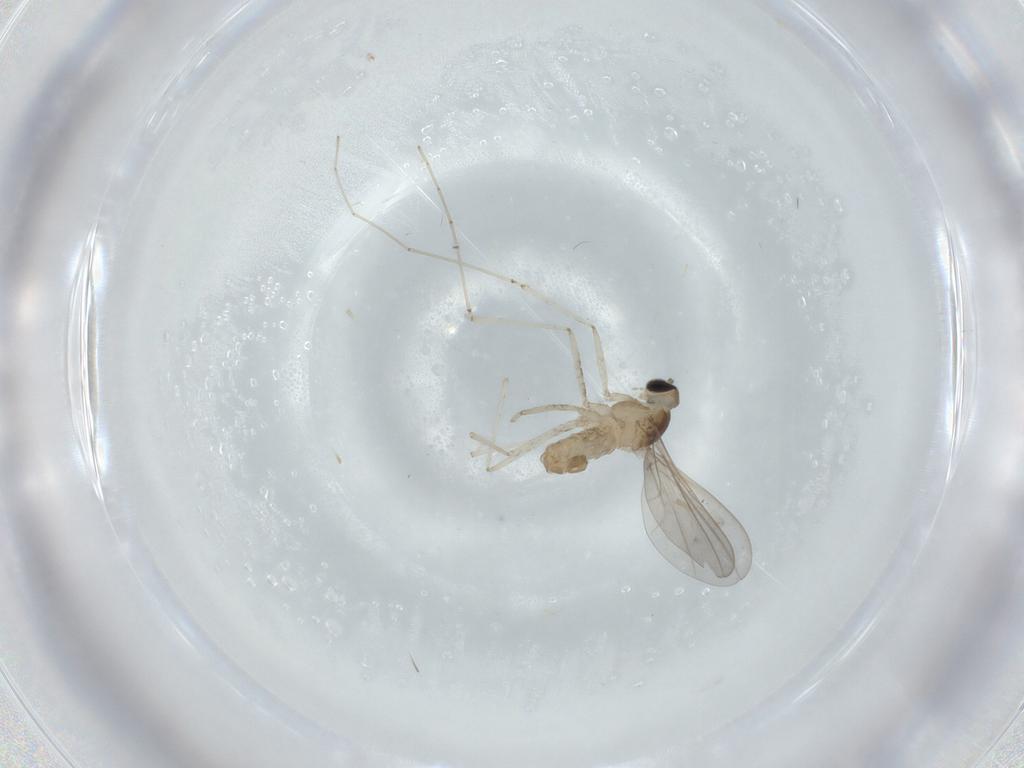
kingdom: Animalia
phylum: Arthropoda
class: Insecta
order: Diptera
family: Cecidomyiidae
